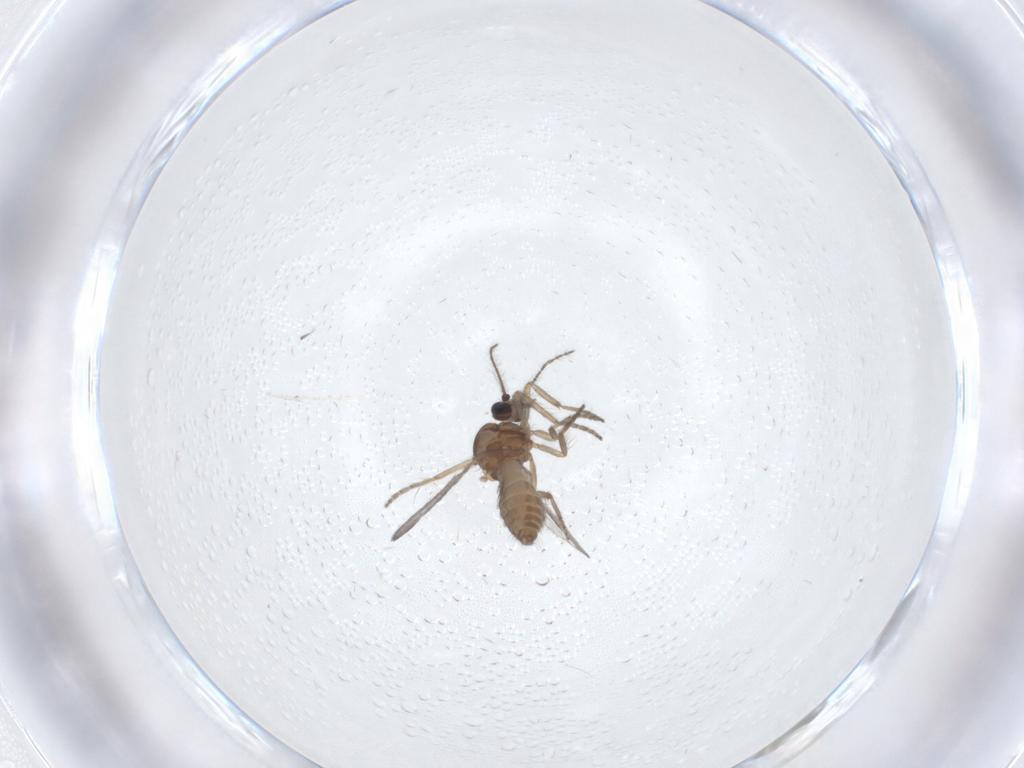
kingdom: Animalia
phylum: Arthropoda
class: Insecta
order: Diptera
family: Ceratopogonidae
